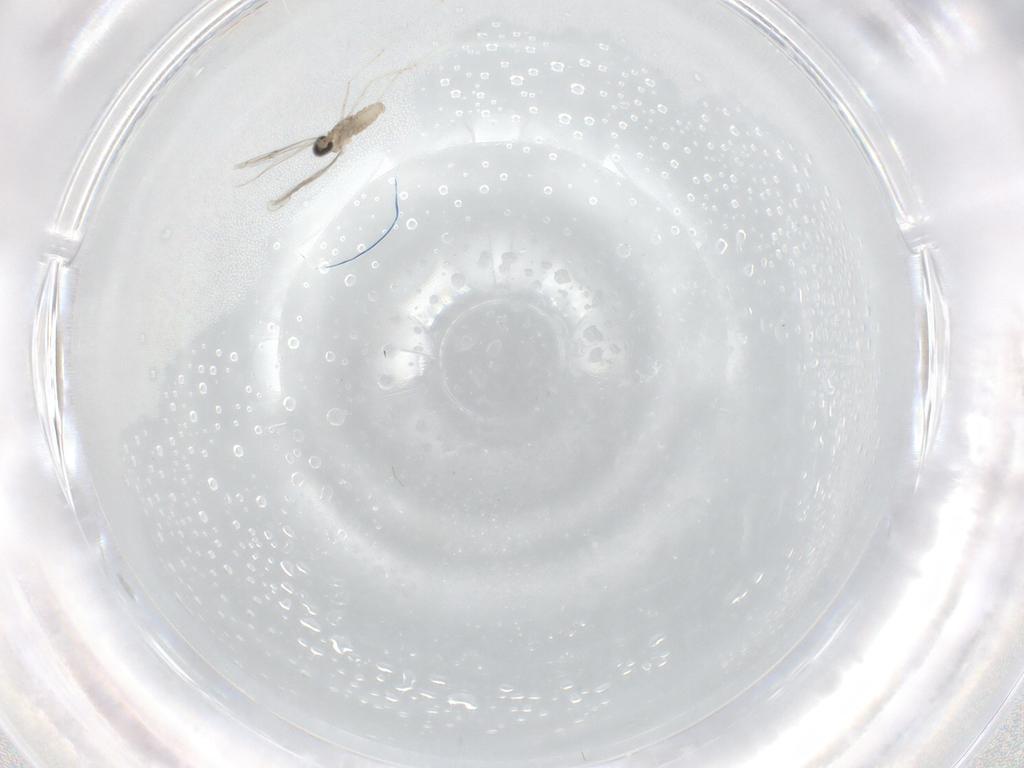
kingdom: Animalia
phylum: Arthropoda
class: Insecta
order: Diptera
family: Cecidomyiidae
